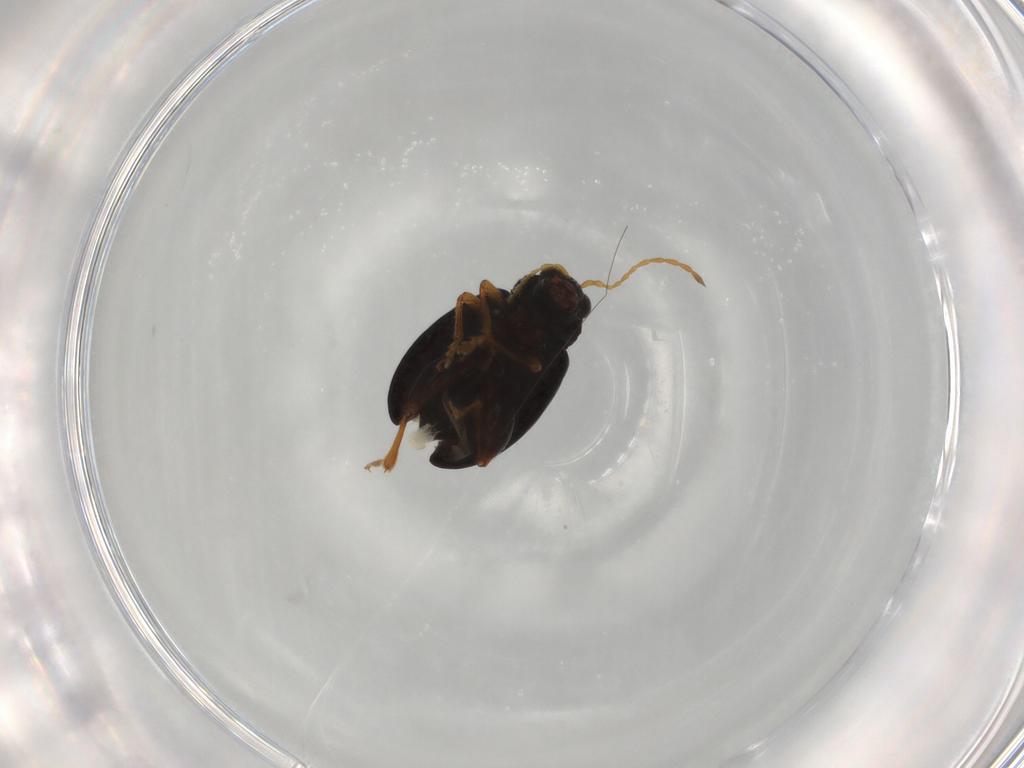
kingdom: Animalia
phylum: Arthropoda
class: Insecta
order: Coleoptera
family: Chrysomelidae
